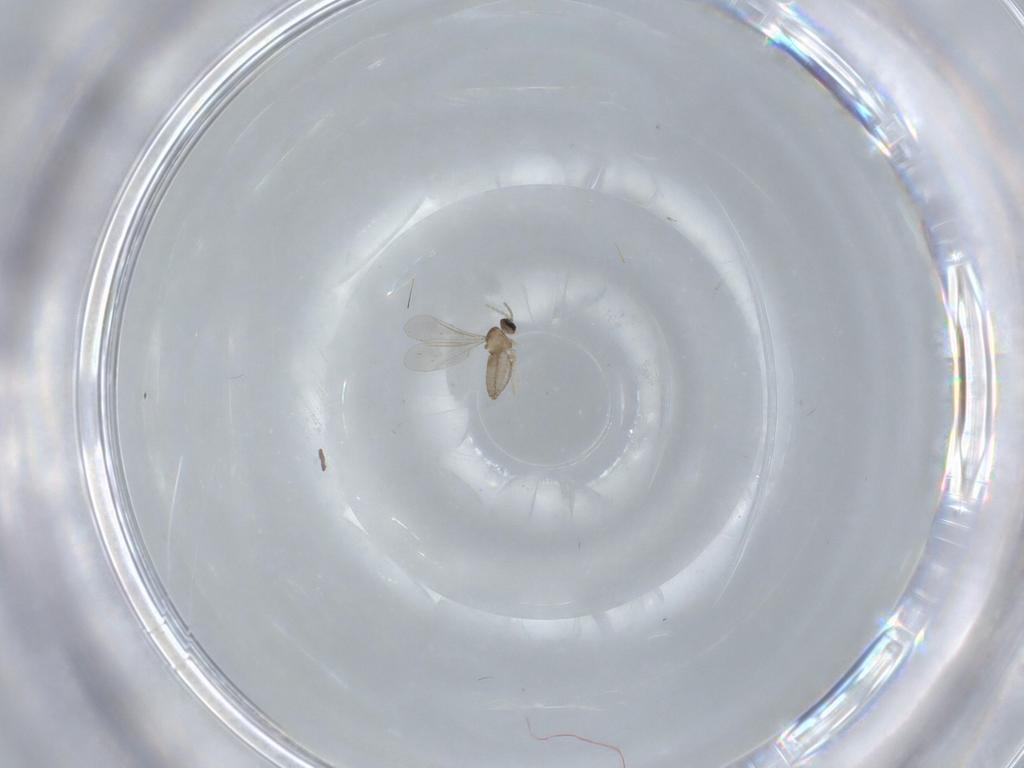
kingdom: Animalia
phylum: Arthropoda
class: Insecta
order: Diptera
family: Cecidomyiidae
